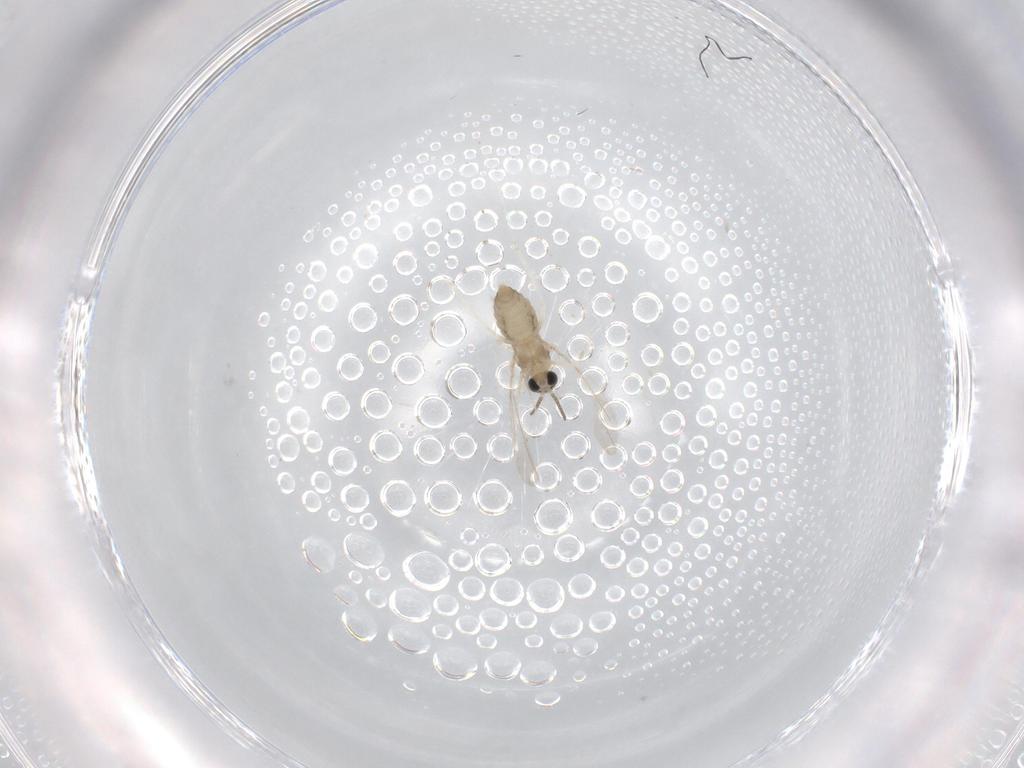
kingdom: Animalia
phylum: Arthropoda
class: Insecta
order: Diptera
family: Cecidomyiidae
